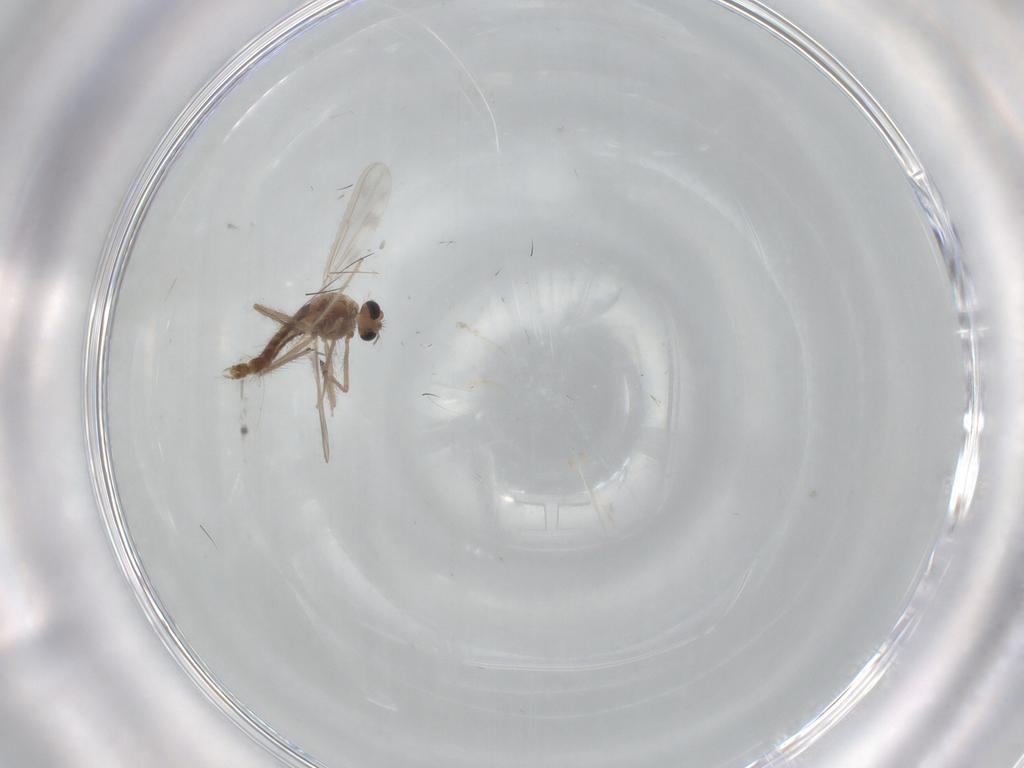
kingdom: Animalia
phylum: Arthropoda
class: Insecta
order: Diptera
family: Chironomidae
